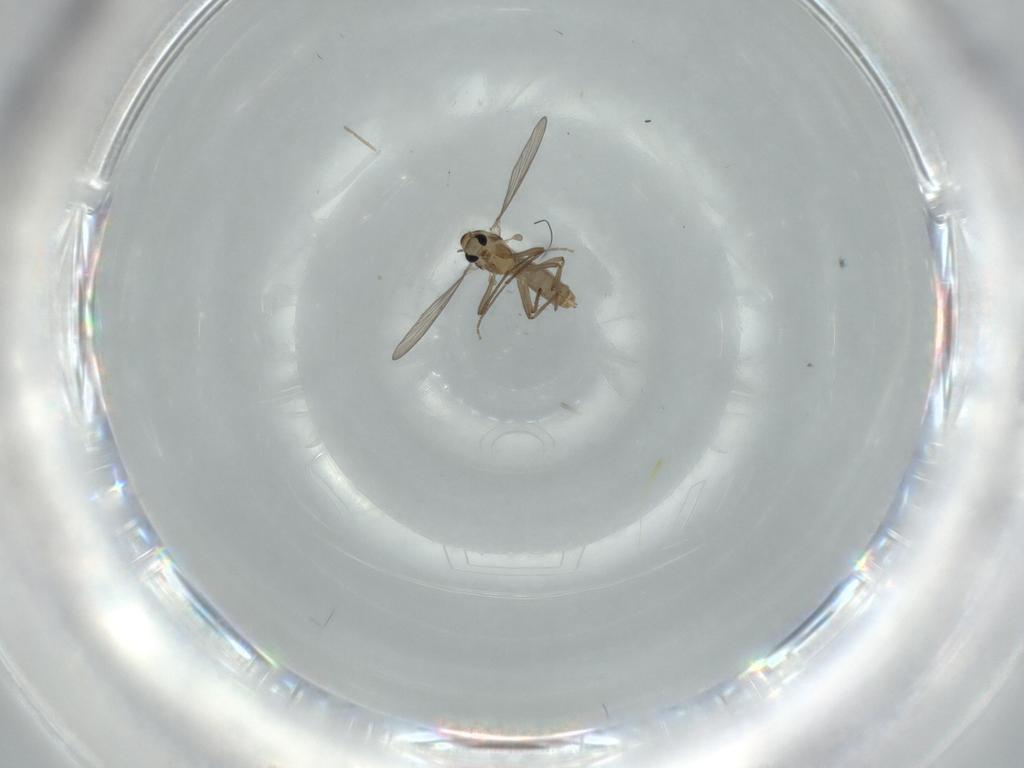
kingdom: Animalia
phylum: Arthropoda
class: Insecta
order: Diptera
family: Chironomidae
